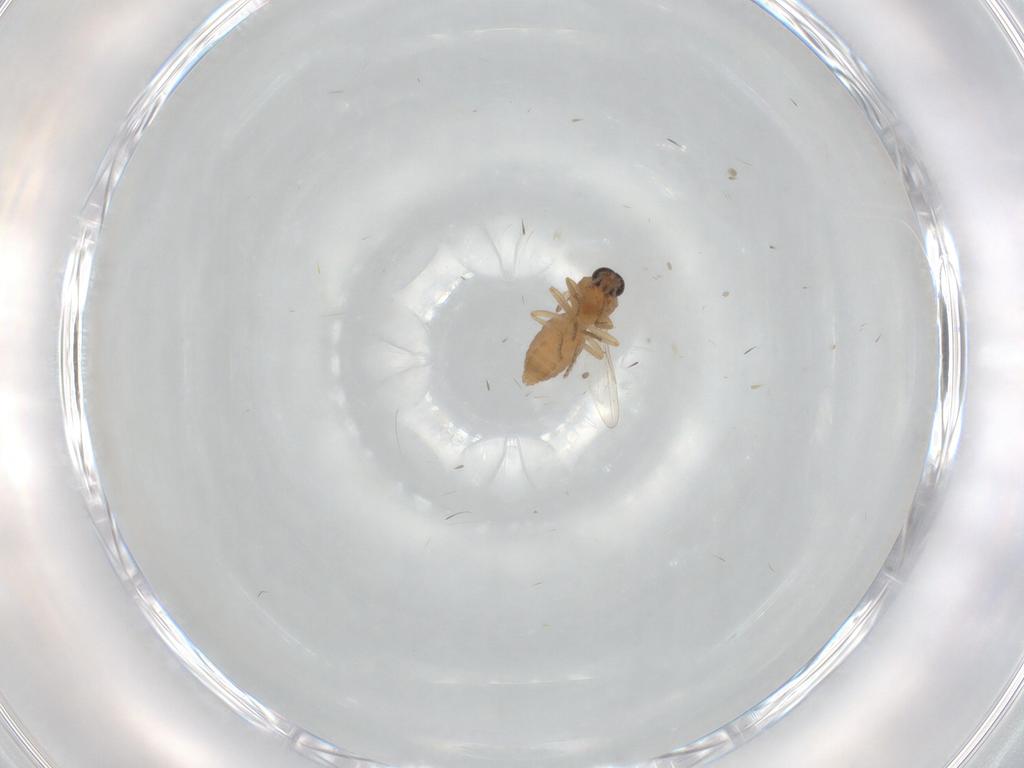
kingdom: Animalia
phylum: Arthropoda
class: Insecta
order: Diptera
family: Ceratopogonidae
